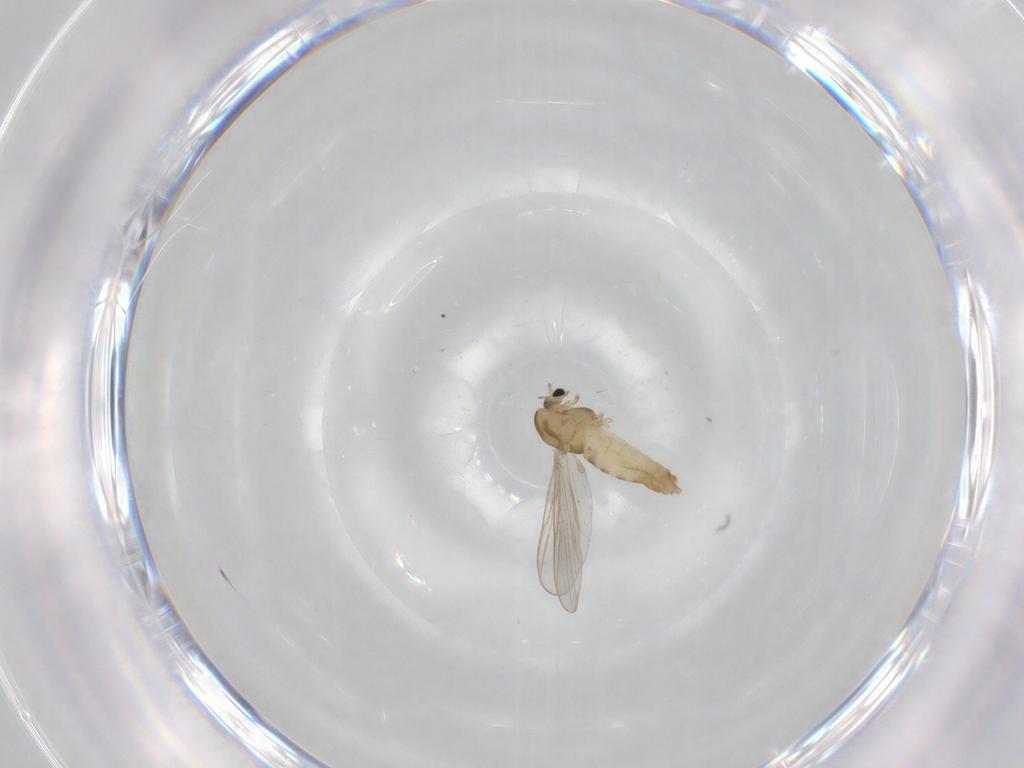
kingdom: Animalia
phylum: Arthropoda
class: Insecta
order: Diptera
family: Chironomidae
